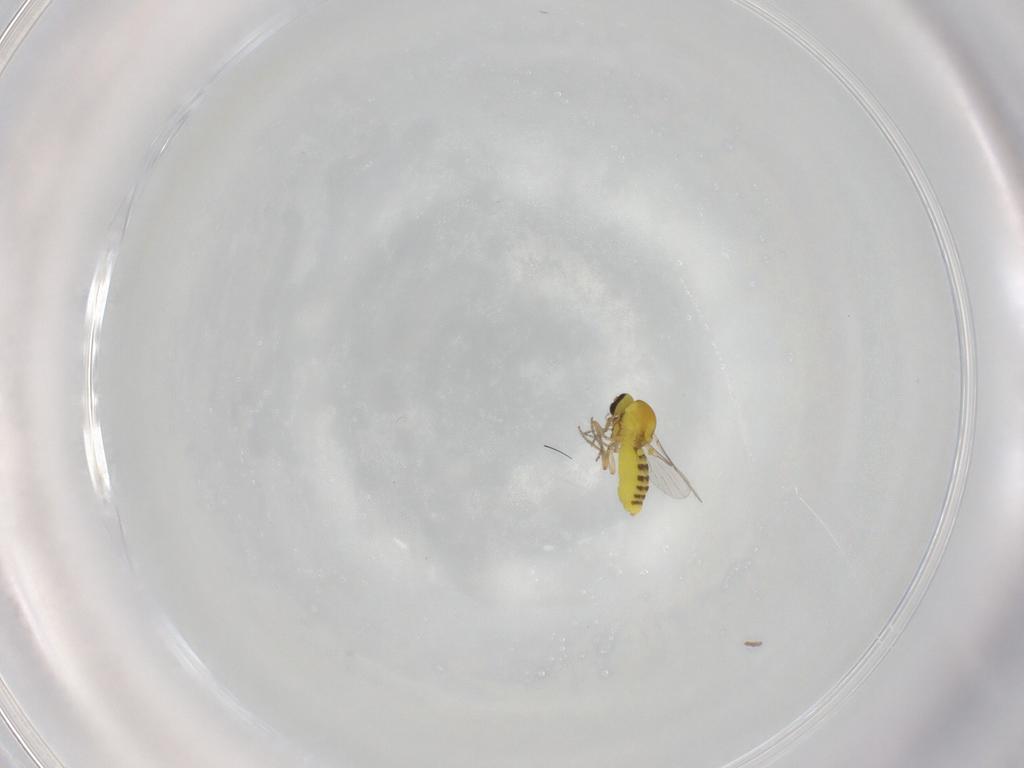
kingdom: Animalia
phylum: Arthropoda
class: Insecta
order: Diptera
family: Ceratopogonidae
